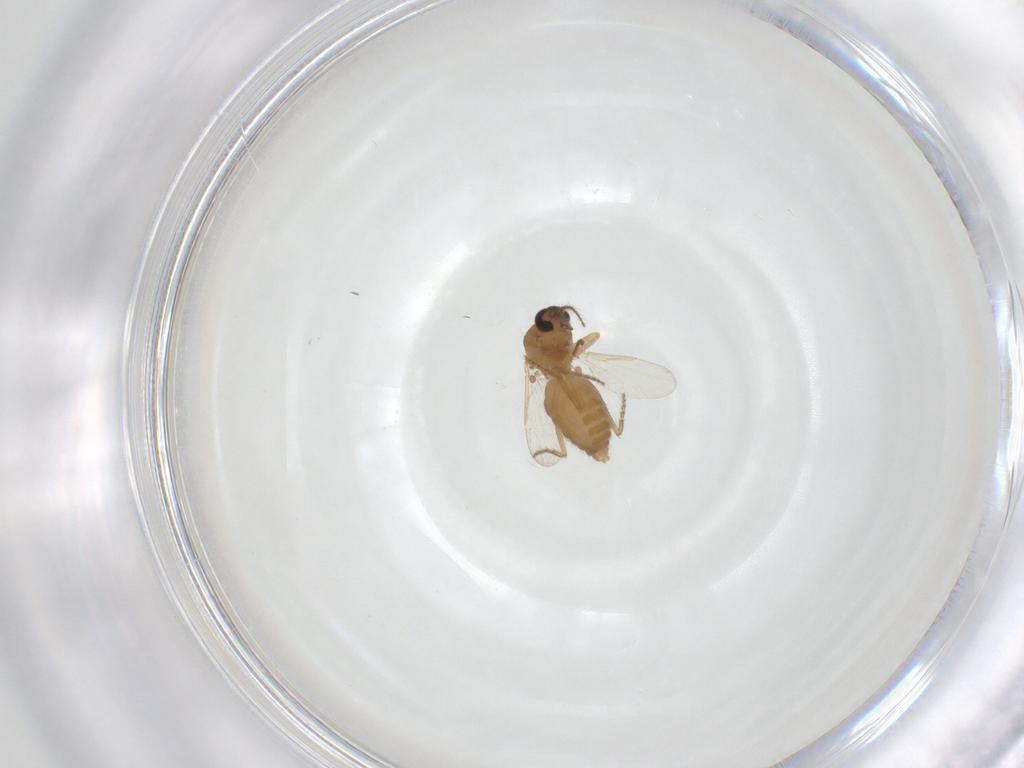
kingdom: Animalia
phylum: Arthropoda
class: Insecta
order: Diptera
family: Ceratopogonidae
